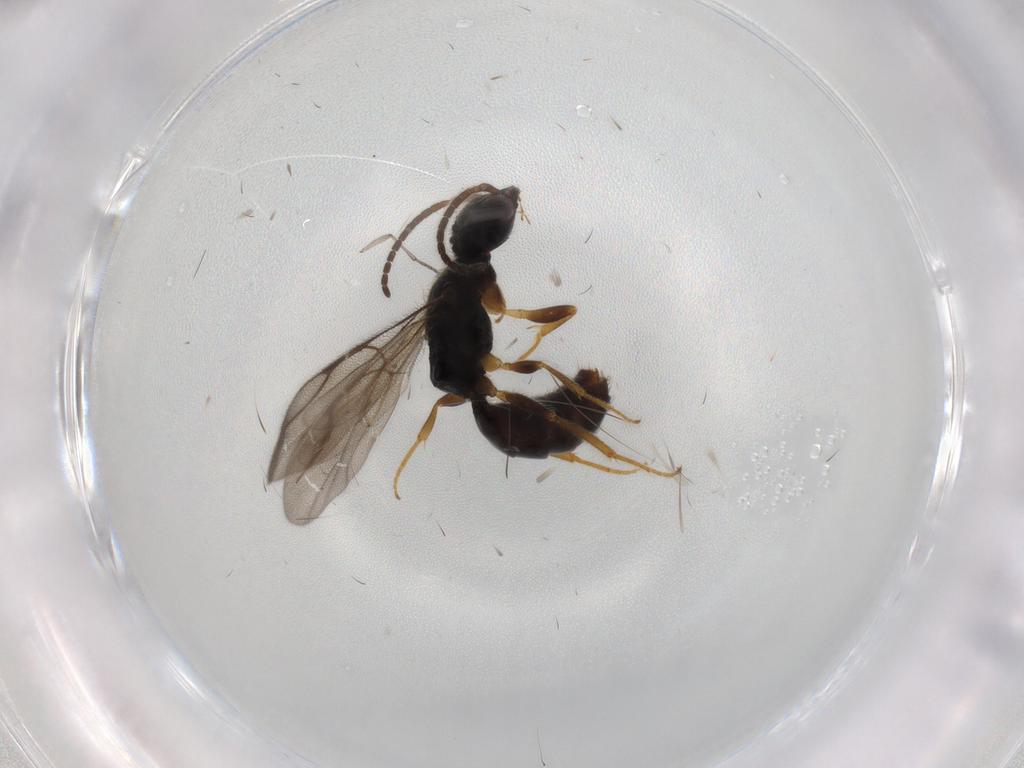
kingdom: Animalia
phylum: Arthropoda
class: Insecta
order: Hymenoptera
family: Bethylidae
